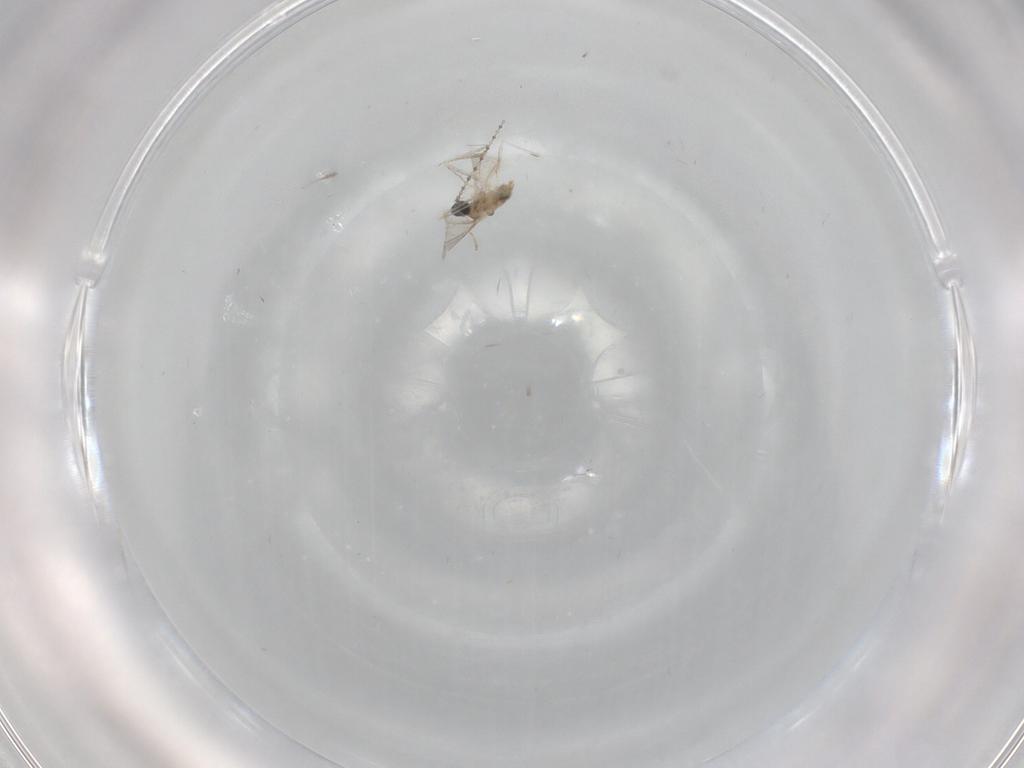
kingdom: Animalia
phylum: Arthropoda
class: Insecta
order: Diptera
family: Cecidomyiidae
